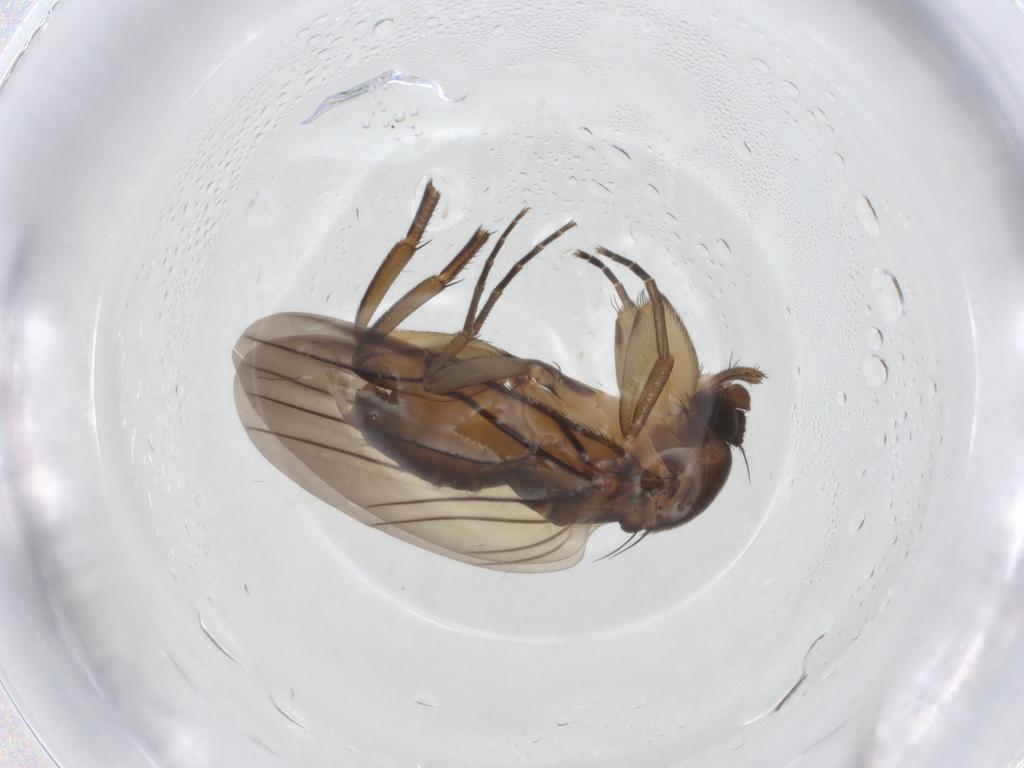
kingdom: Animalia
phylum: Arthropoda
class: Insecta
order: Diptera
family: Phoridae
